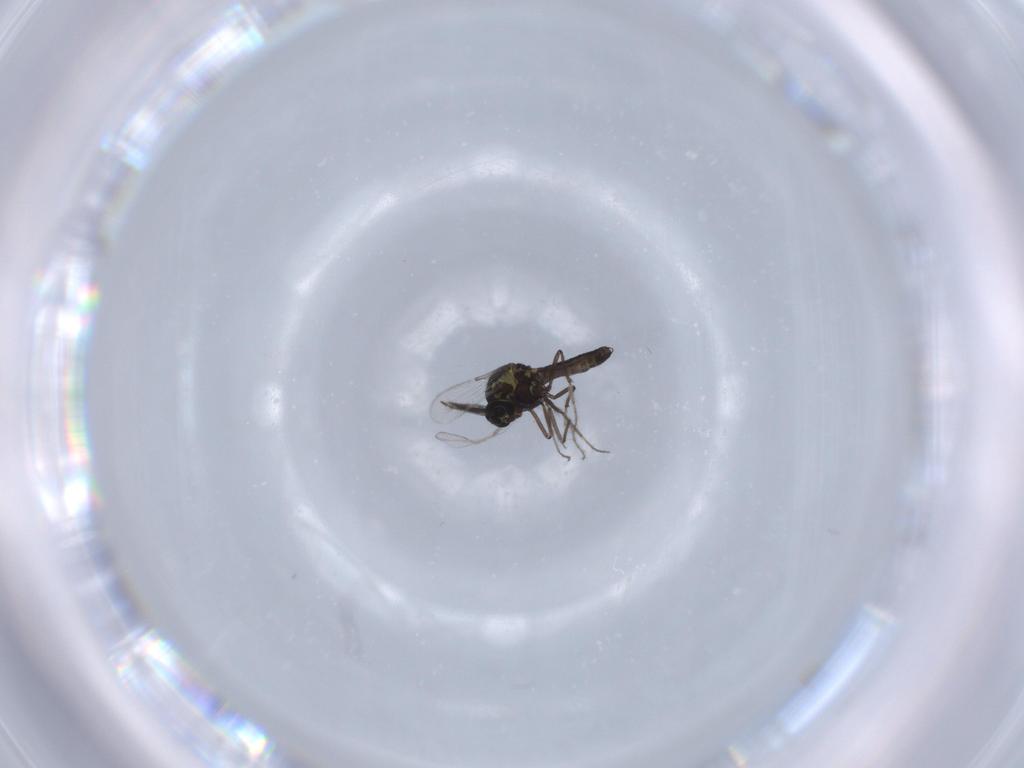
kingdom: Animalia
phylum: Arthropoda
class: Insecta
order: Diptera
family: Ceratopogonidae
